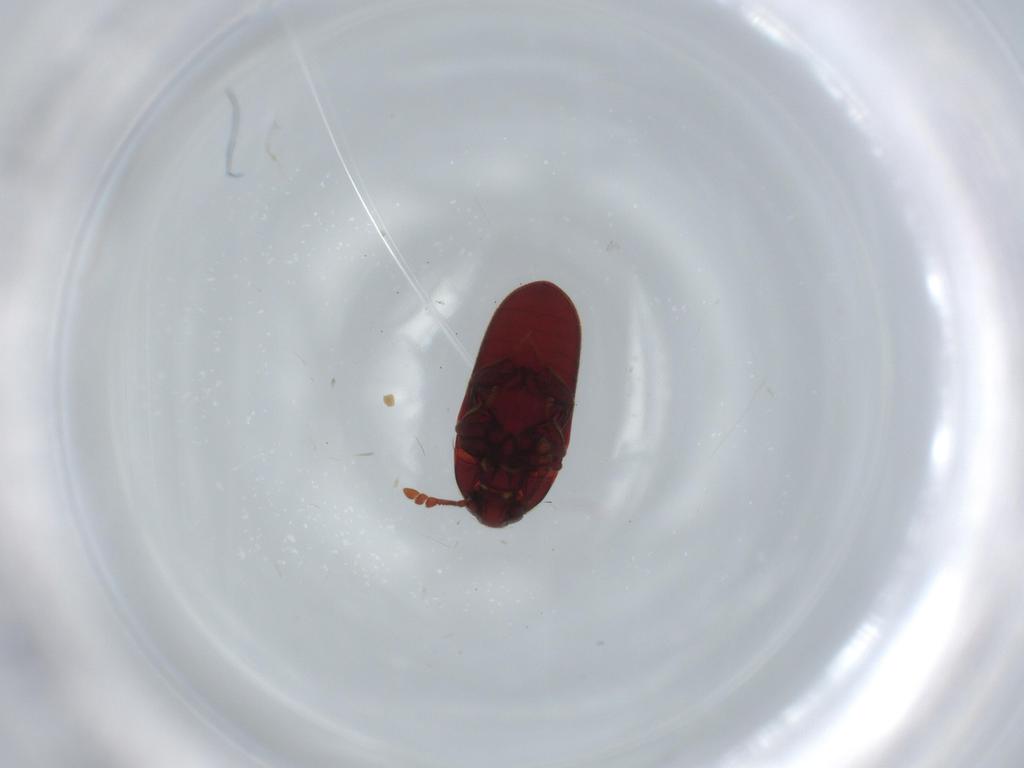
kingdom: Animalia
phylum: Arthropoda
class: Insecta
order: Coleoptera
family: Throscidae
